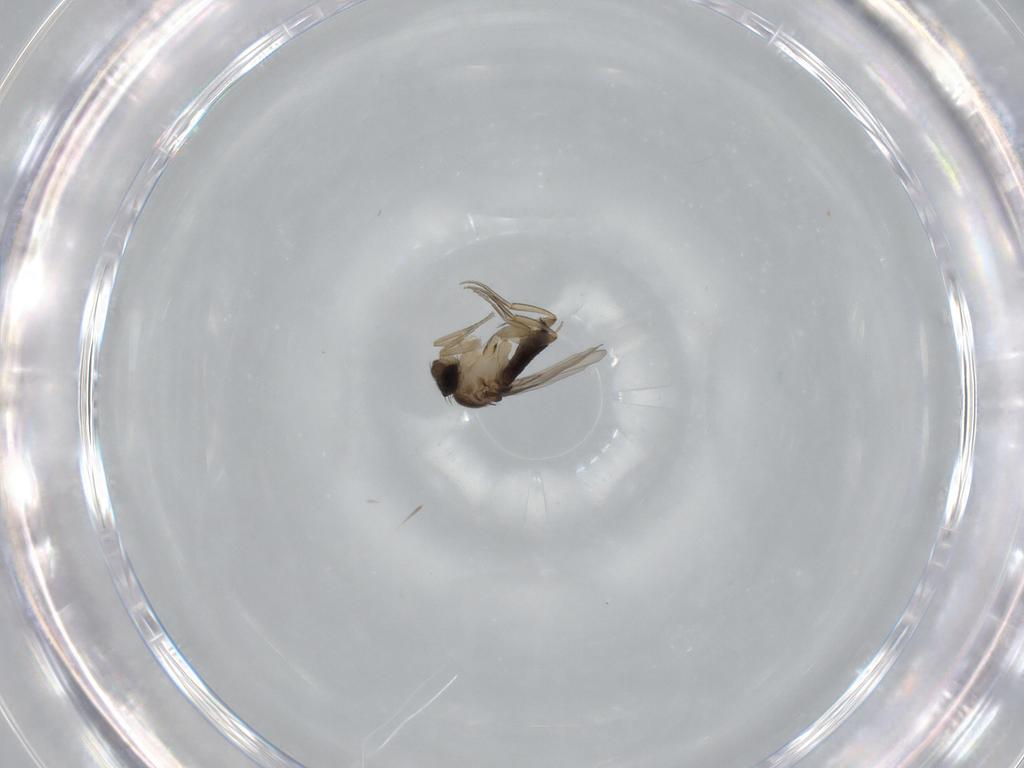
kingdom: Animalia
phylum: Arthropoda
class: Insecta
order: Diptera
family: Phoridae
